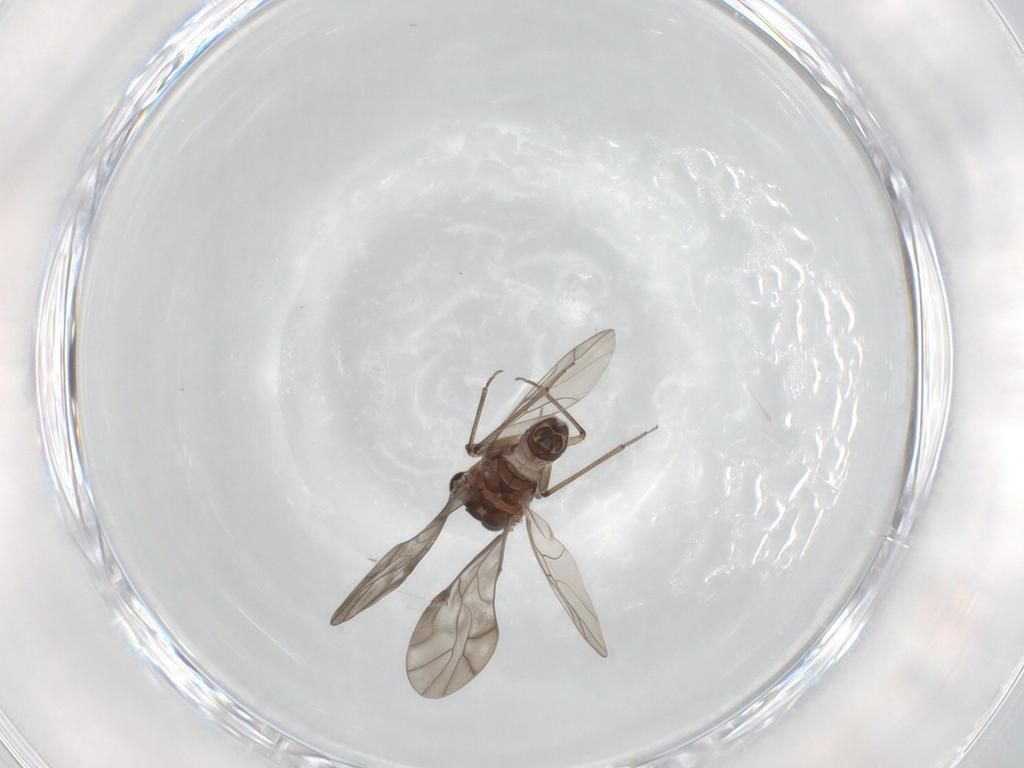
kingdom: Animalia
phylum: Arthropoda
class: Insecta
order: Psocodea
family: Peripsocidae
